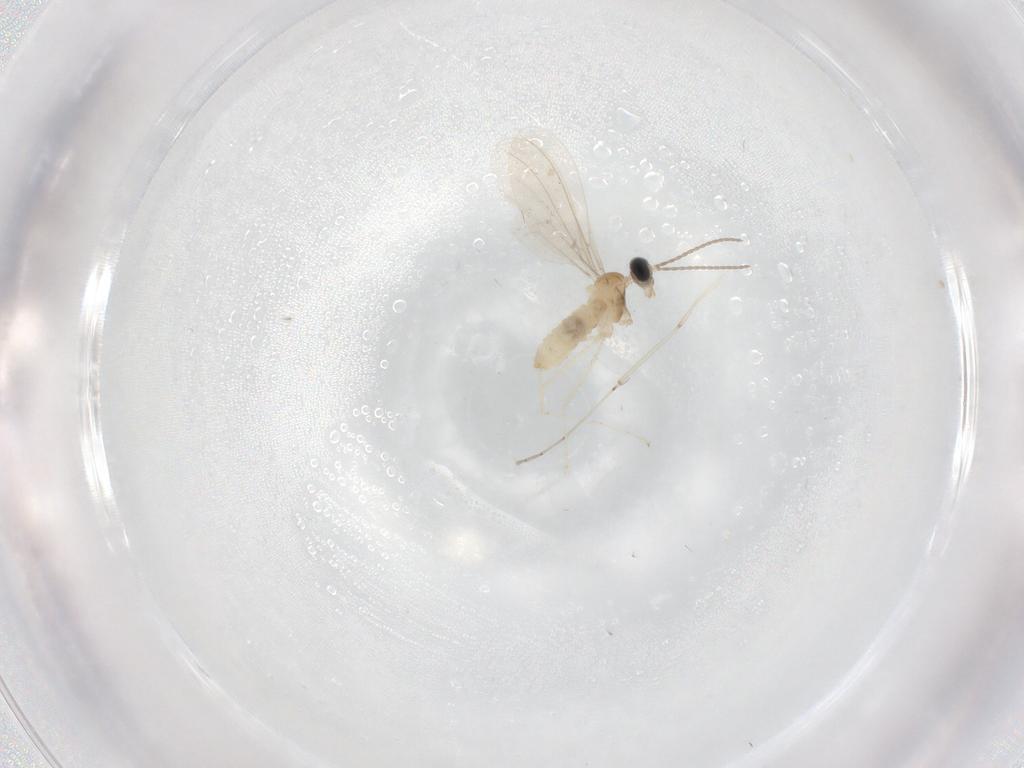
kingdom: Animalia
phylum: Arthropoda
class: Insecta
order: Diptera
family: Cecidomyiidae
